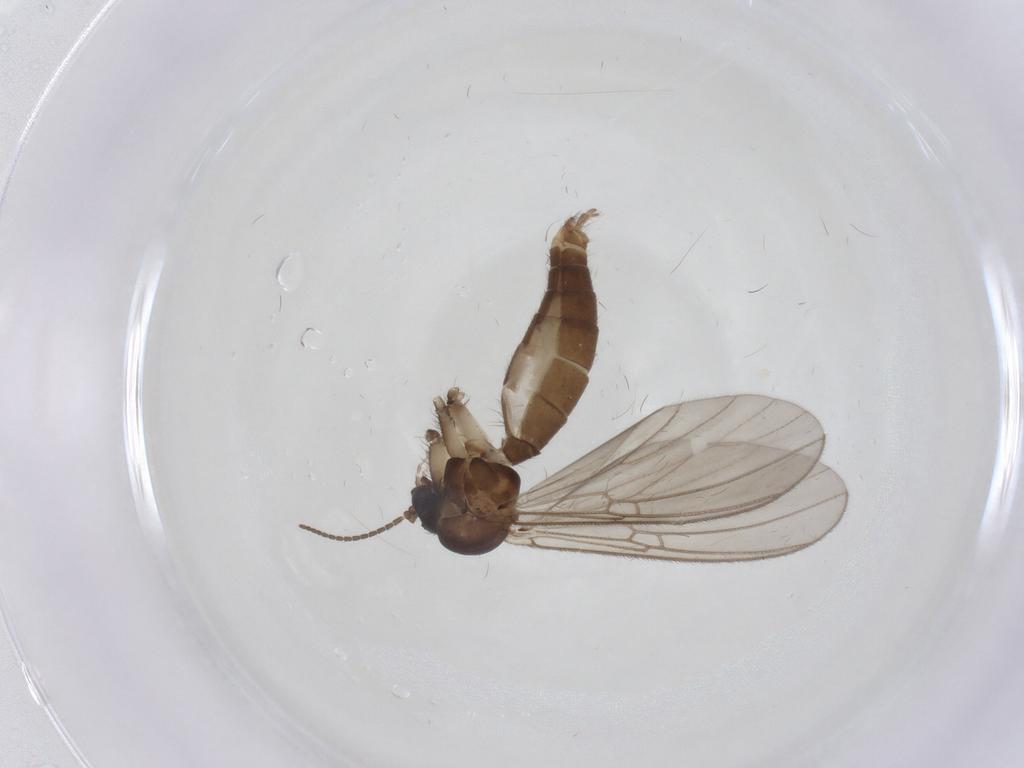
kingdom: Animalia
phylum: Arthropoda
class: Insecta
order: Diptera
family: Mycetophilidae
